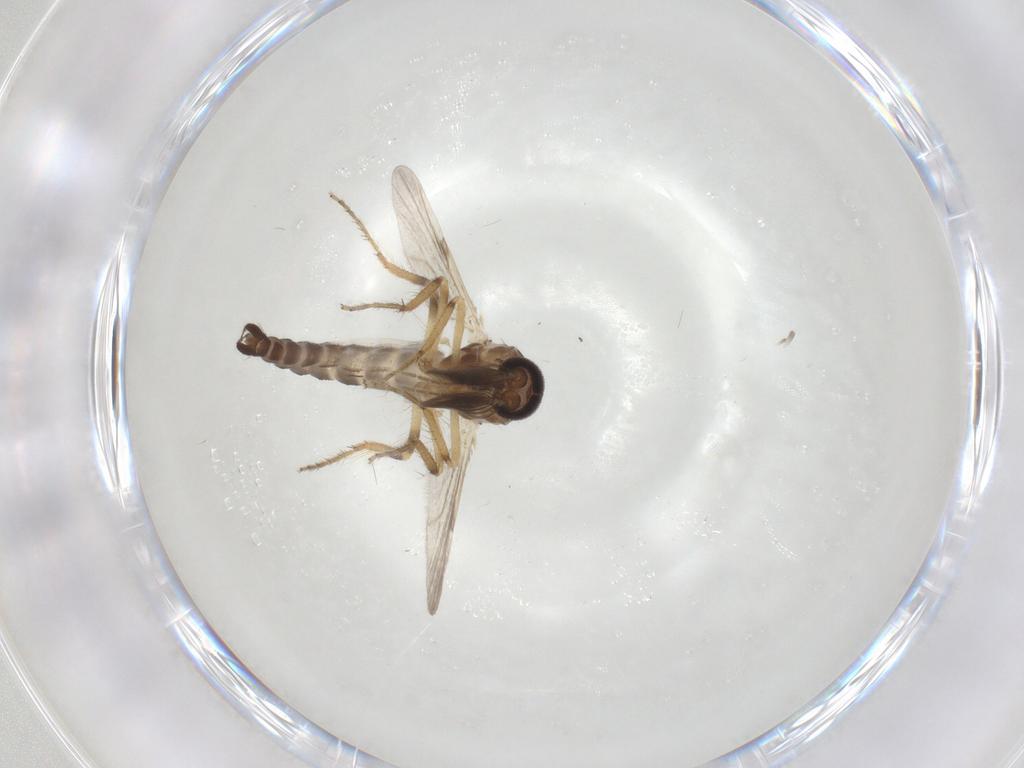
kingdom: Animalia
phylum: Arthropoda
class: Insecta
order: Diptera
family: Ceratopogonidae
